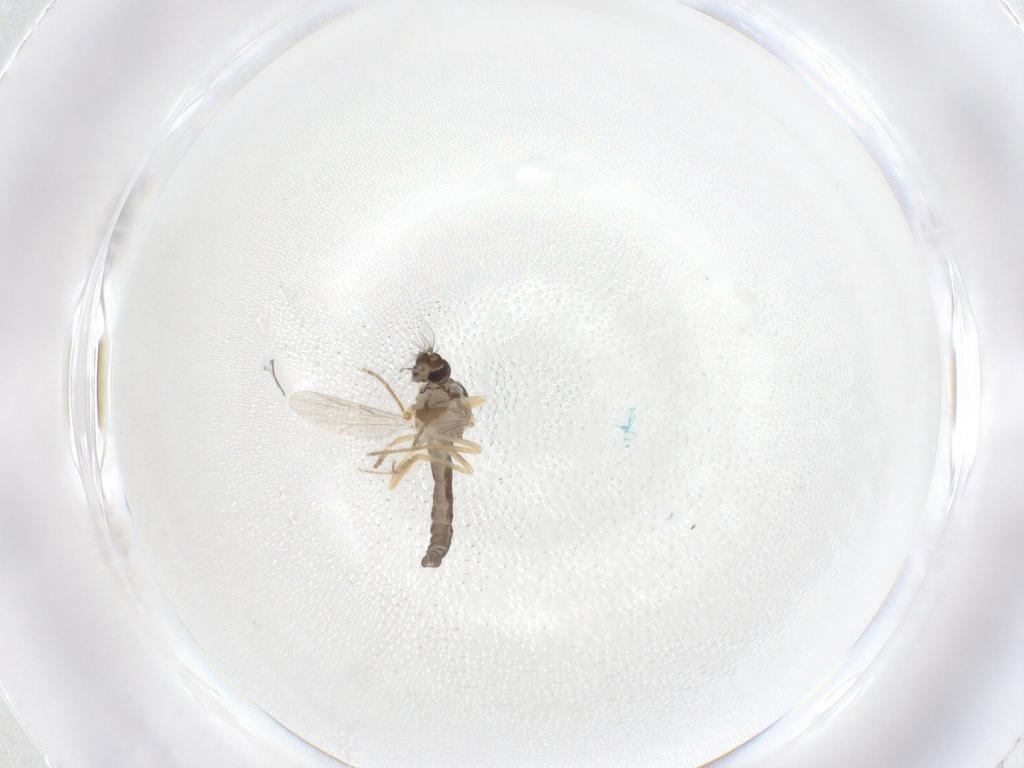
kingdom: Animalia
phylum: Arthropoda
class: Insecta
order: Diptera
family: Ceratopogonidae
